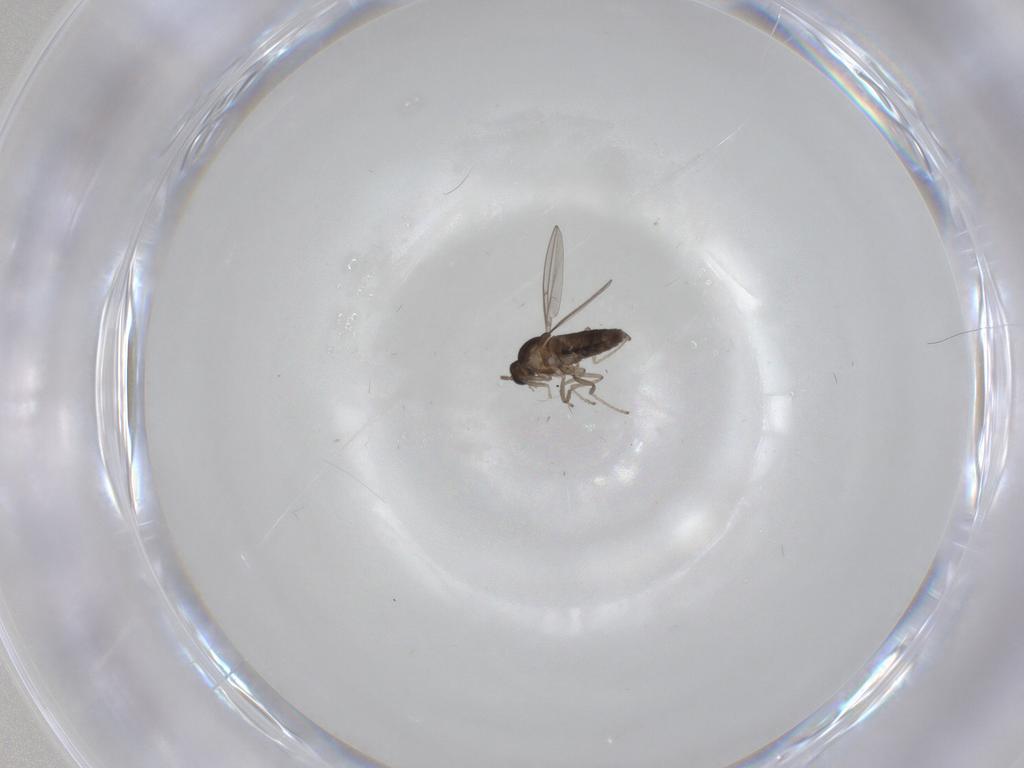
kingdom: Animalia
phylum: Arthropoda
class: Insecta
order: Diptera
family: Cecidomyiidae
